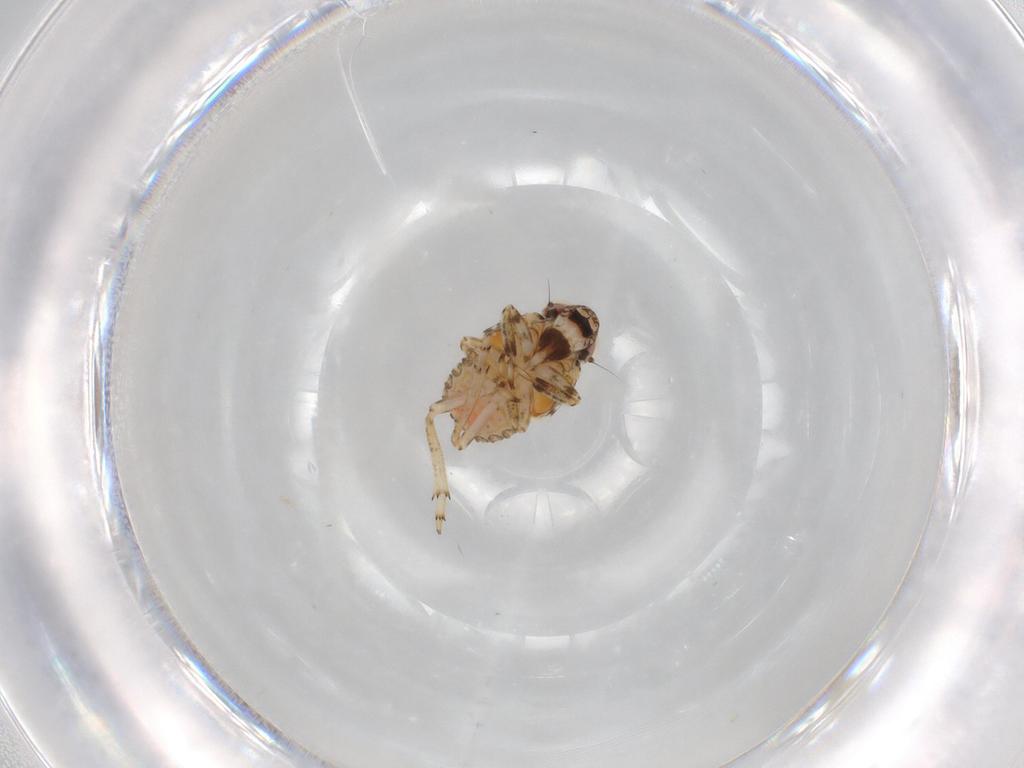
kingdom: Animalia
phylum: Arthropoda
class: Insecta
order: Hemiptera
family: Issidae
